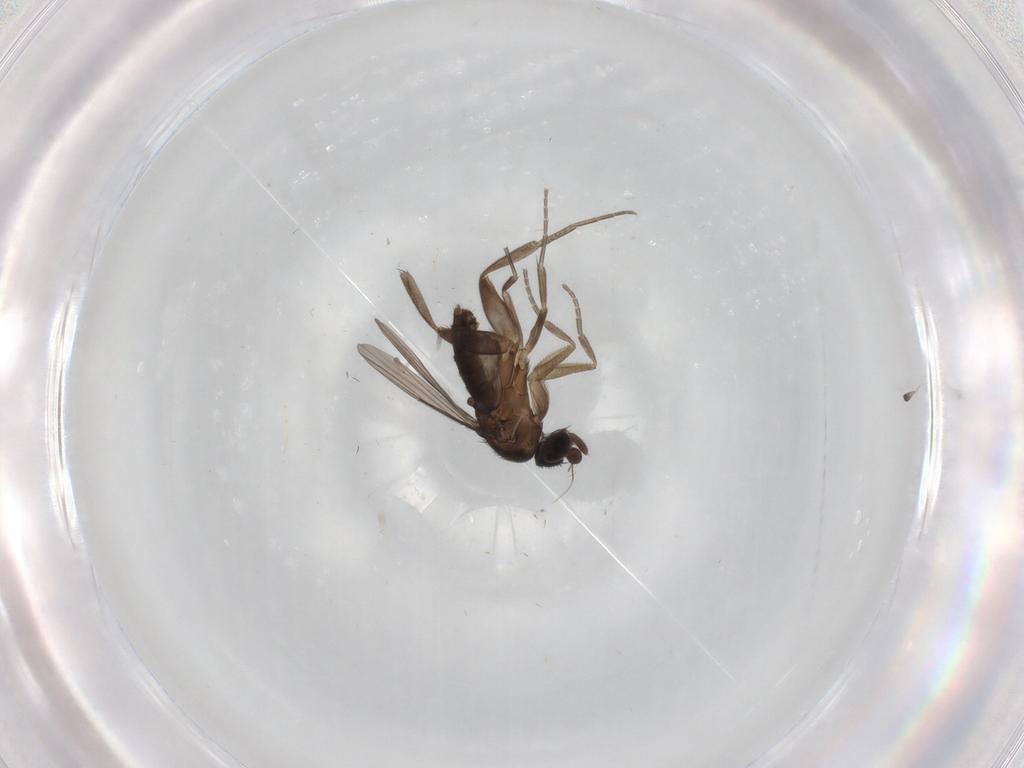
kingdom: Animalia
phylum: Arthropoda
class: Insecta
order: Diptera
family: Phoridae
